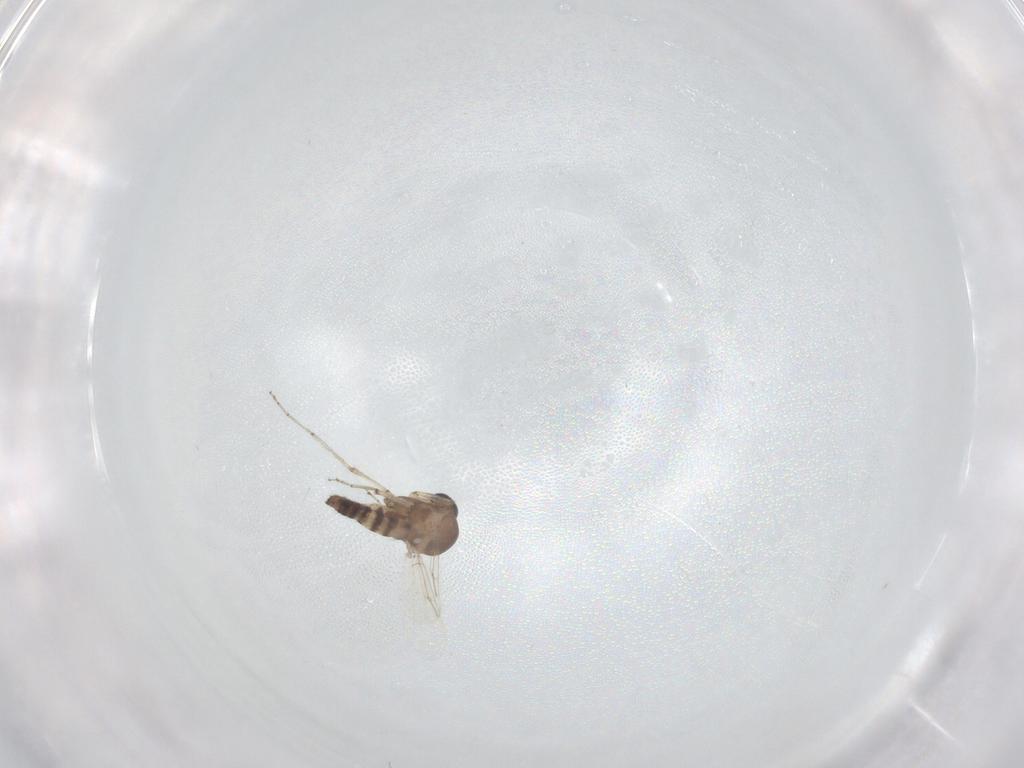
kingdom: Animalia
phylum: Arthropoda
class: Insecta
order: Diptera
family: Ceratopogonidae
